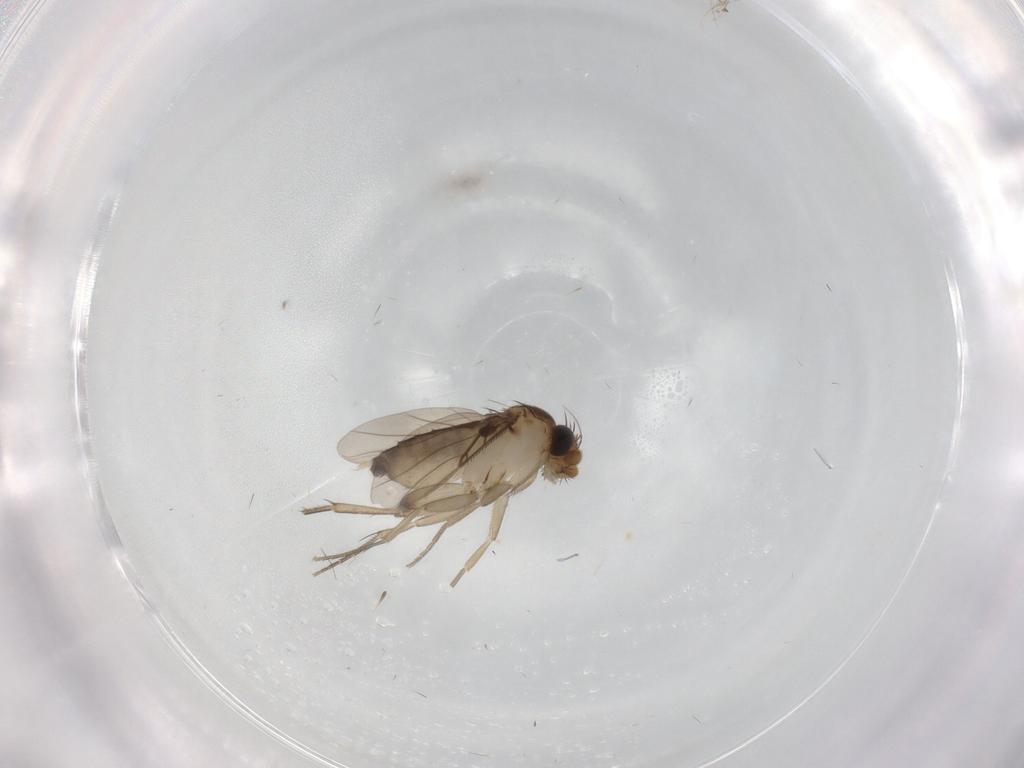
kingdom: Animalia
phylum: Arthropoda
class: Insecta
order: Diptera
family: Phoridae
